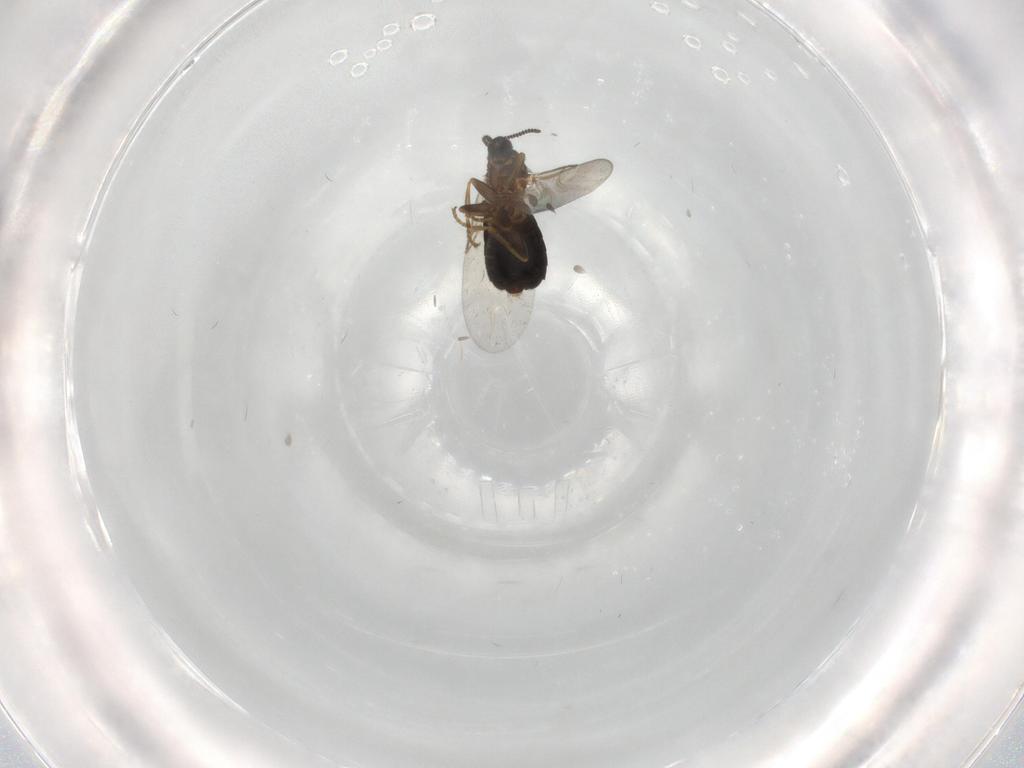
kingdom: Animalia
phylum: Arthropoda
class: Insecta
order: Diptera
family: Scatopsidae
